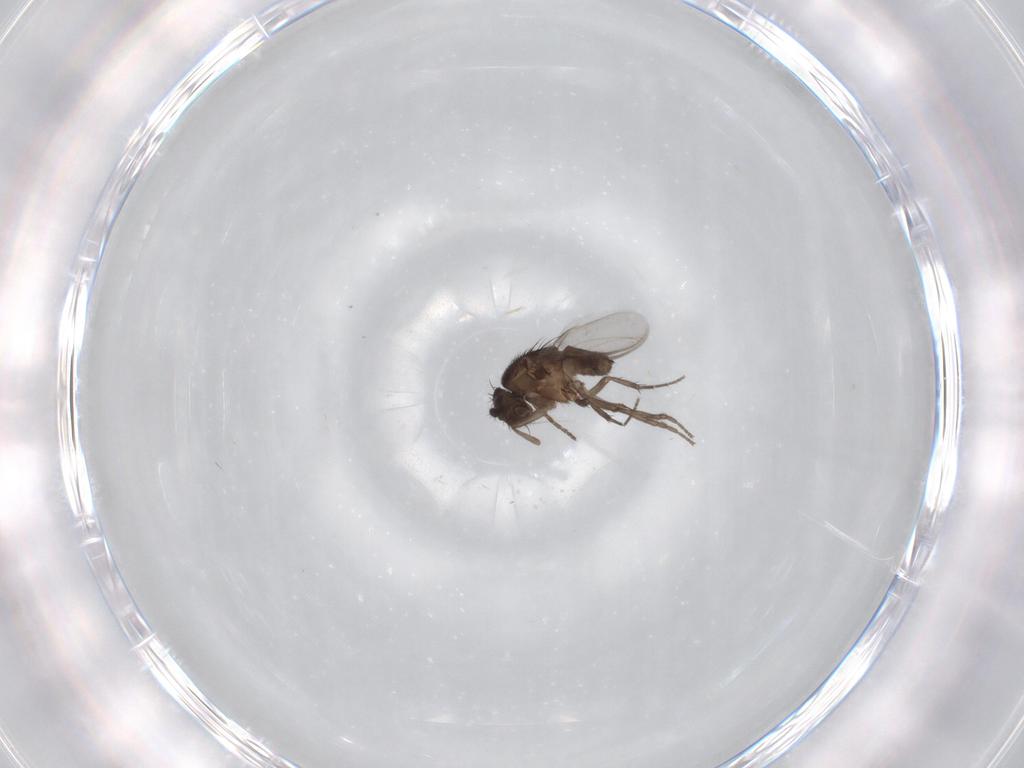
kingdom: Animalia
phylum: Arthropoda
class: Insecta
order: Diptera
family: Sphaeroceridae
